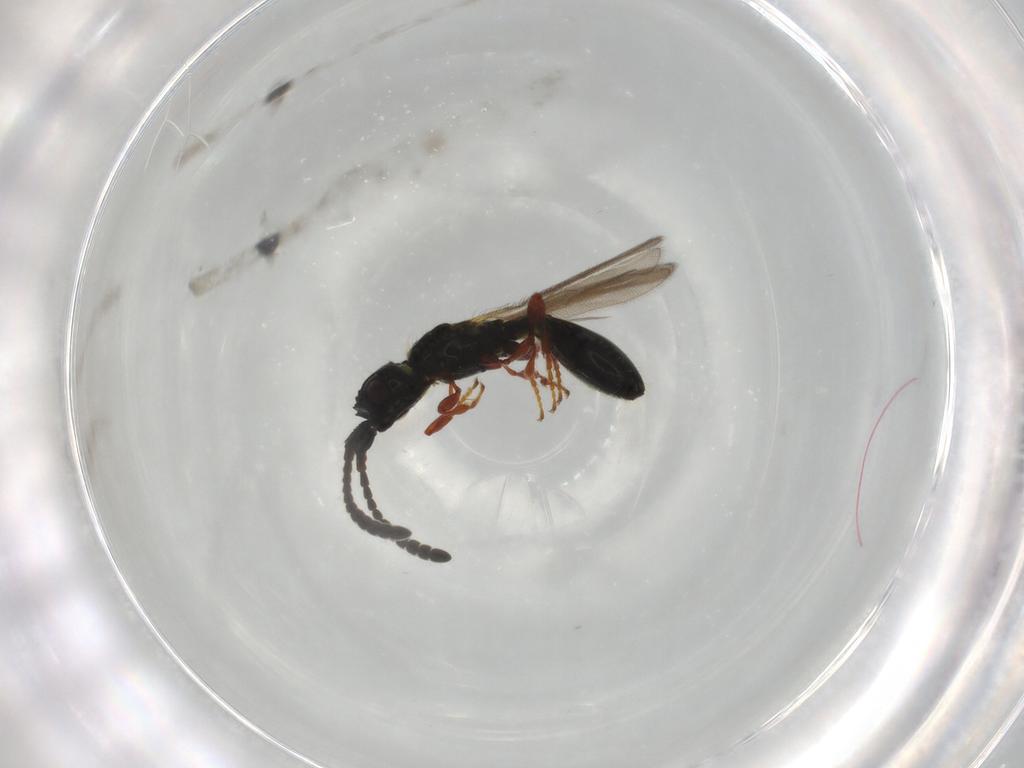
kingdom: Animalia
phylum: Arthropoda
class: Insecta
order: Hymenoptera
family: Diapriidae
